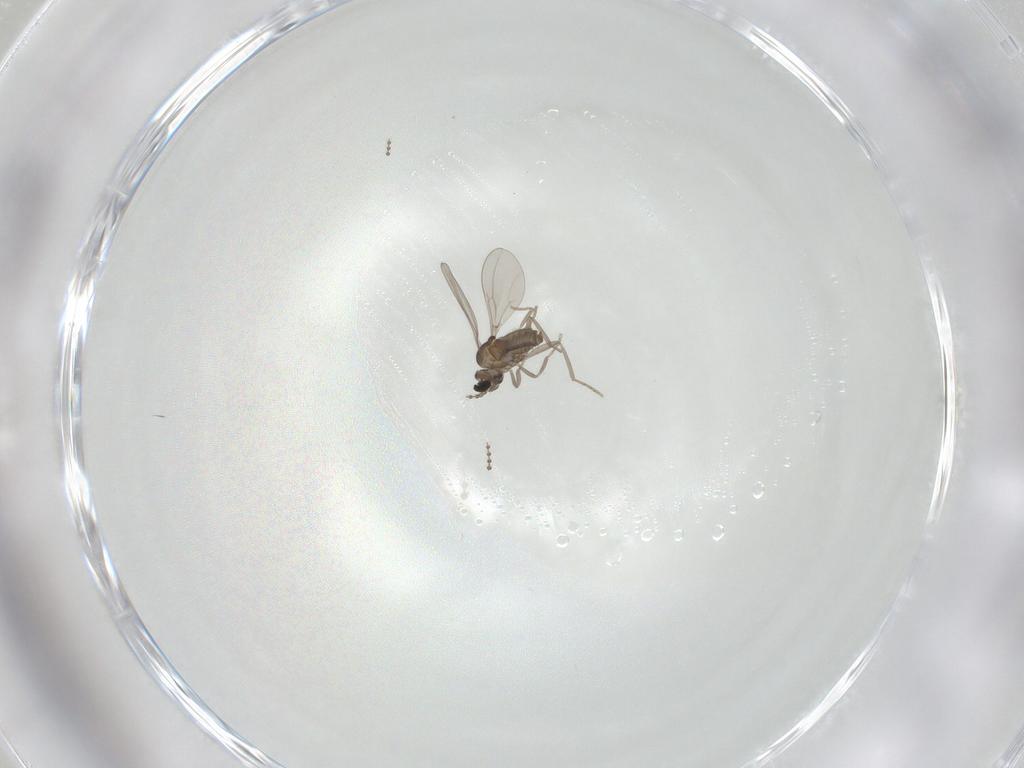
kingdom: Animalia
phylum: Arthropoda
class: Insecta
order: Diptera
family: Cecidomyiidae
